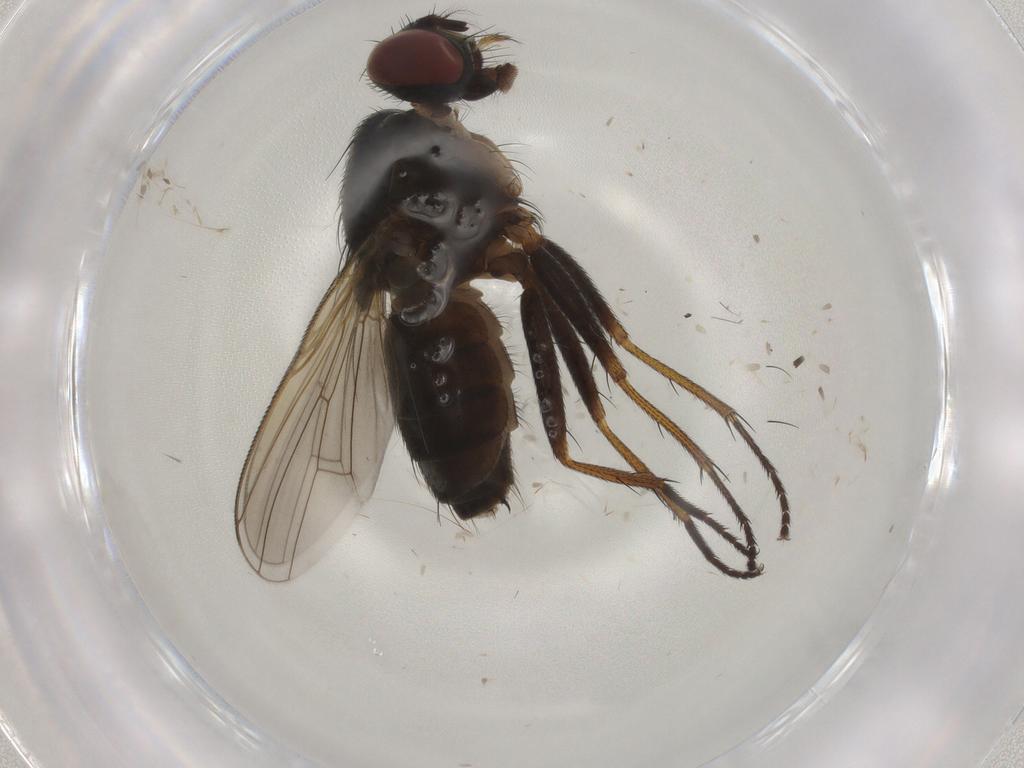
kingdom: Animalia
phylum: Arthropoda
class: Insecta
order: Diptera
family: Muscidae
